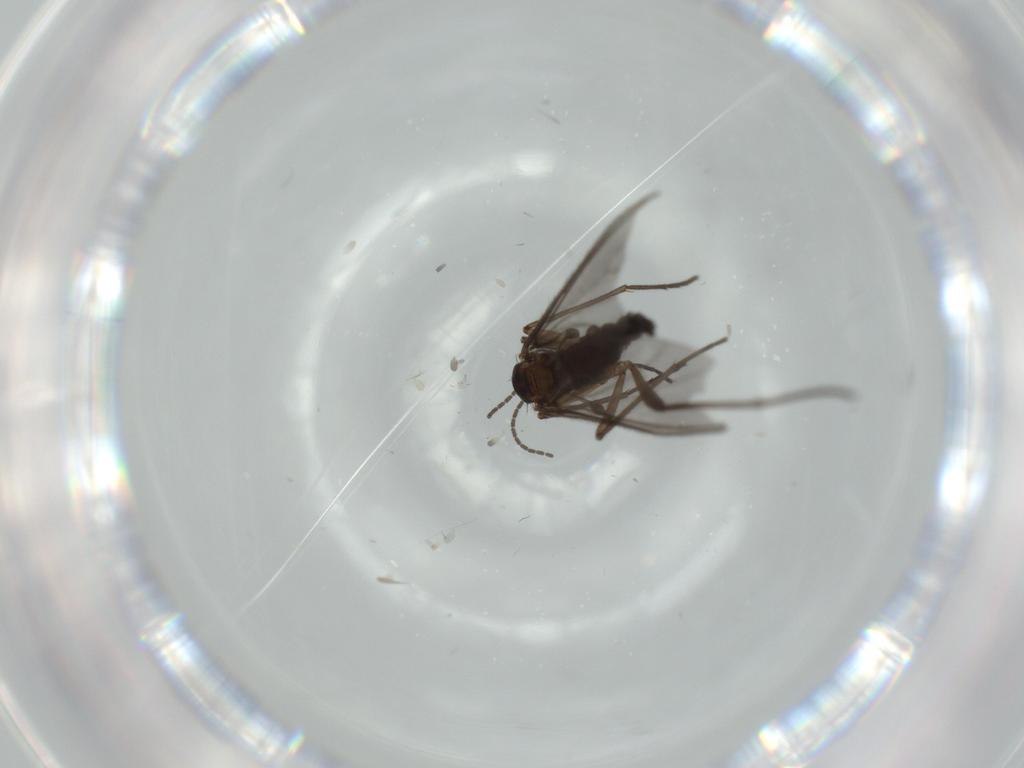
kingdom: Animalia
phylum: Arthropoda
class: Insecta
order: Diptera
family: Sciaridae
